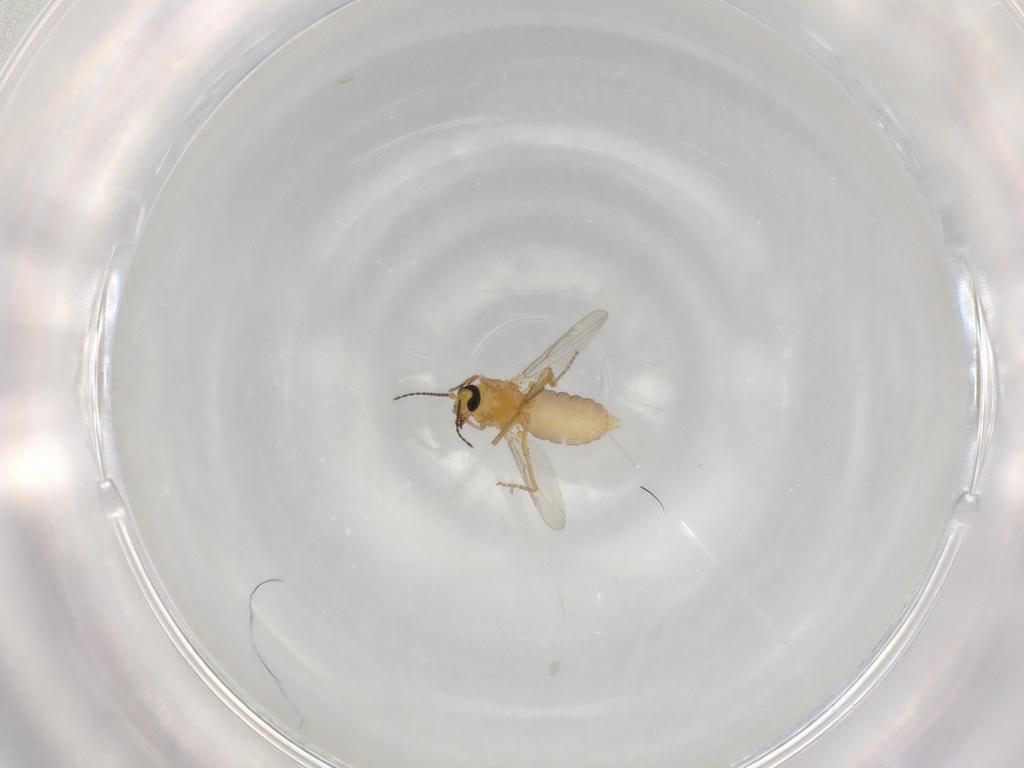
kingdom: Animalia
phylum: Arthropoda
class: Insecta
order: Diptera
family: Ceratopogonidae
